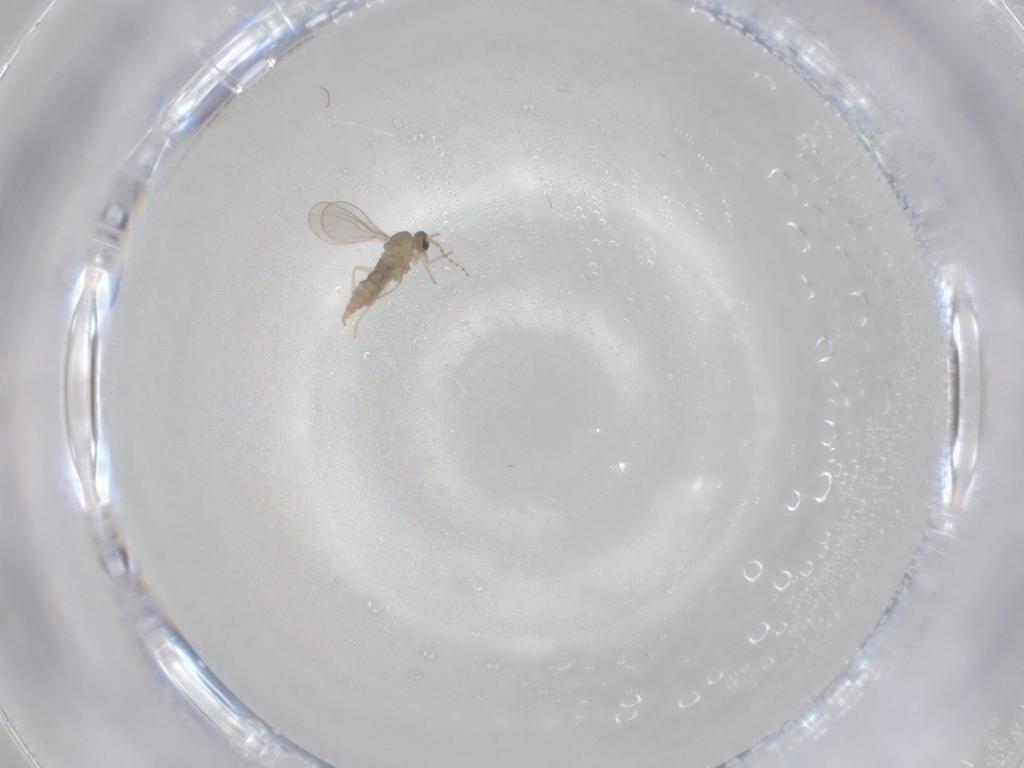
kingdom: Animalia
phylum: Arthropoda
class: Insecta
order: Diptera
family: Cecidomyiidae
